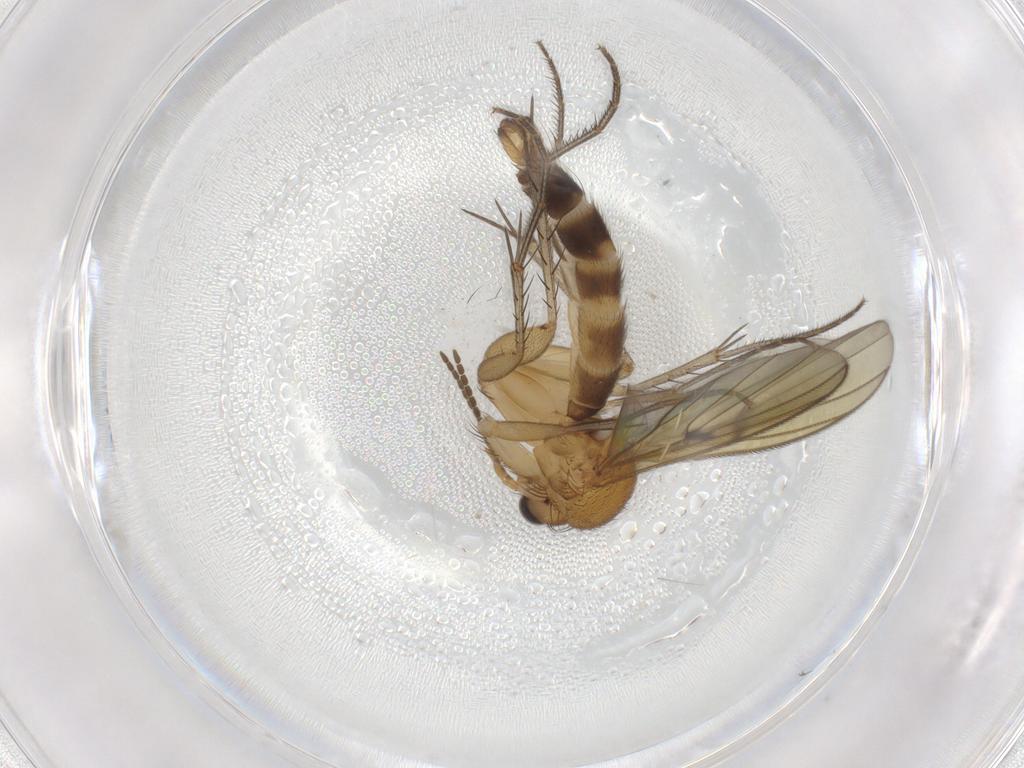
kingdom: Animalia
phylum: Arthropoda
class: Insecta
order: Diptera
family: Mycetophilidae
